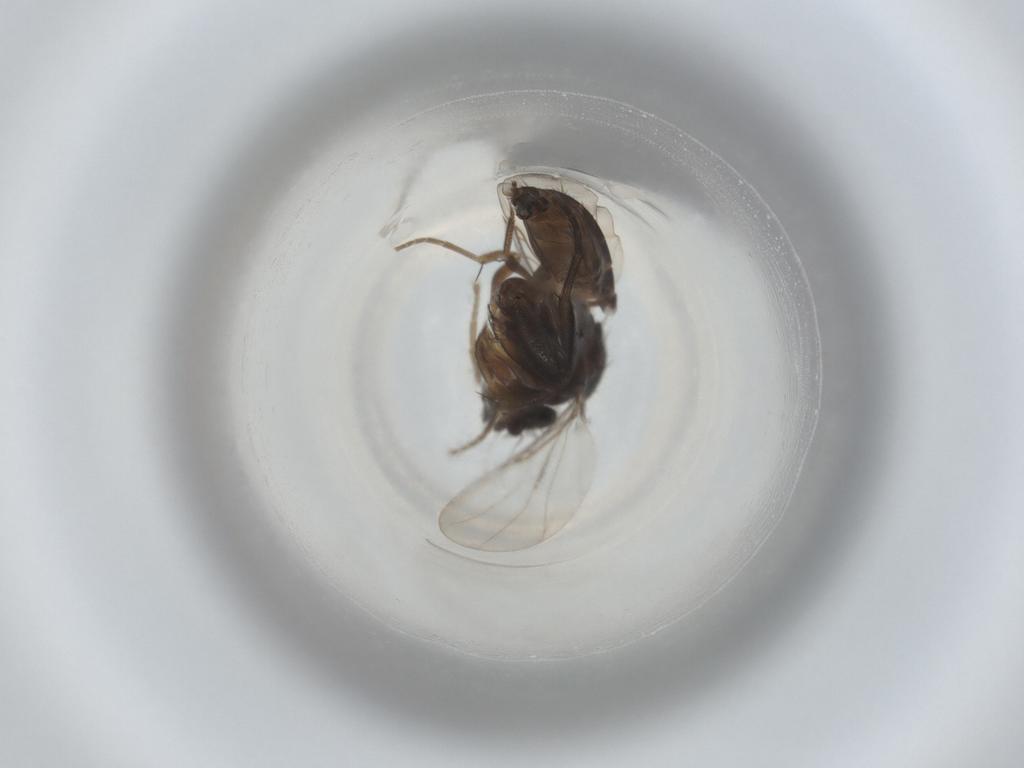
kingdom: Animalia
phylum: Arthropoda
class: Insecta
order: Diptera
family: Phoridae
